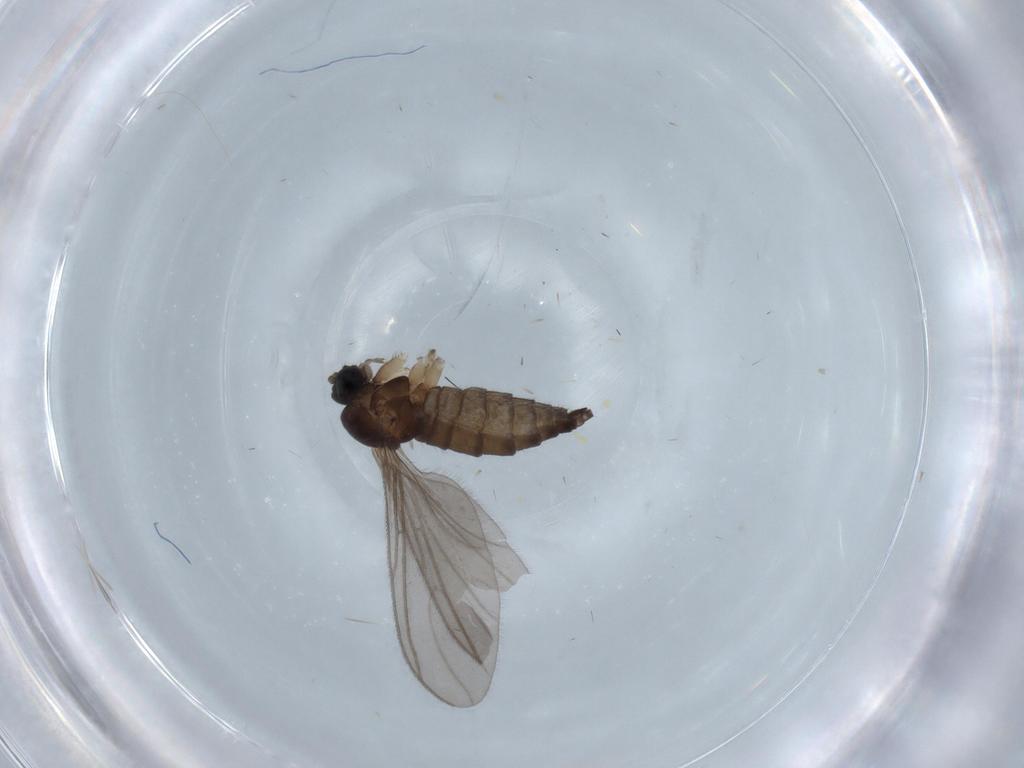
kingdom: Animalia
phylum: Arthropoda
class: Insecta
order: Diptera
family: Sciaridae
